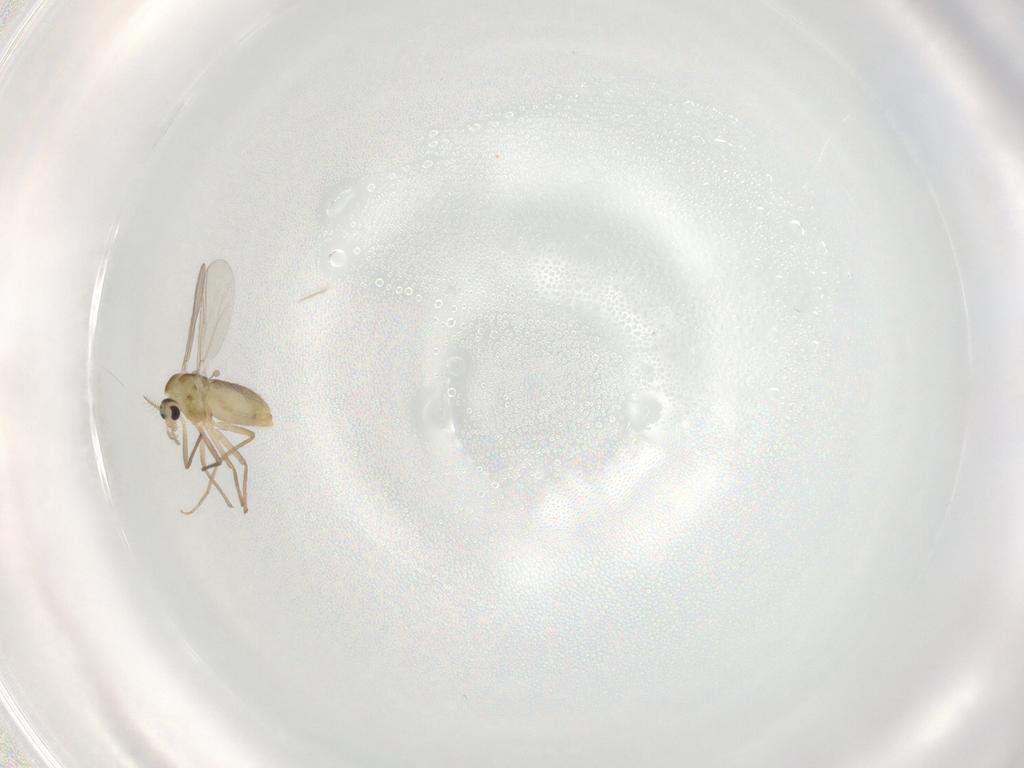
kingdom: Animalia
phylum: Arthropoda
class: Insecta
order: Diptera
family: Chironomidae
